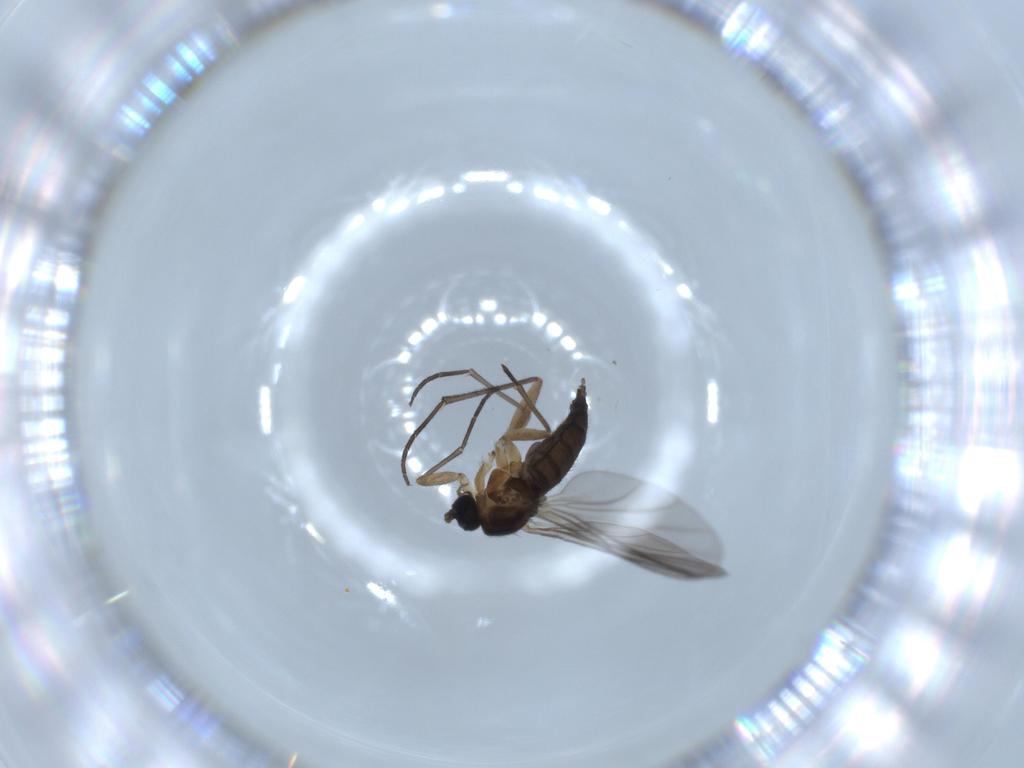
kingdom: Animalia
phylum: Arthropoda
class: Insecta
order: Diptera
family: Sciaridae
